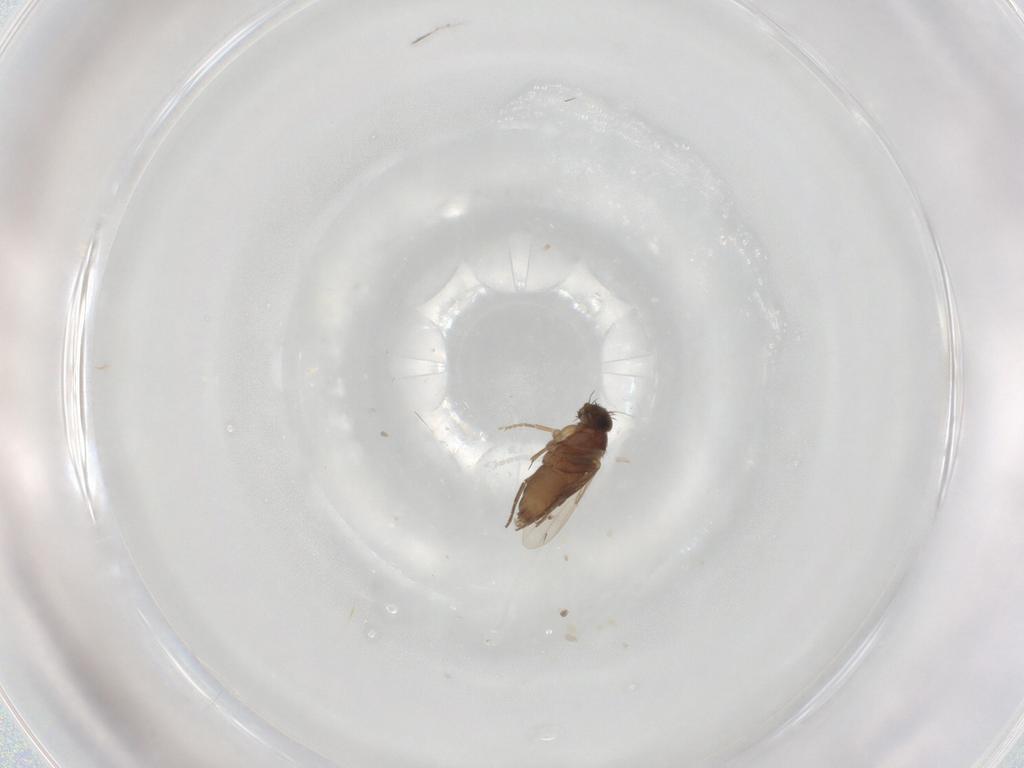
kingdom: Animalia
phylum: Arthropoda
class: Insecta
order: Diptera
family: Phoridae
